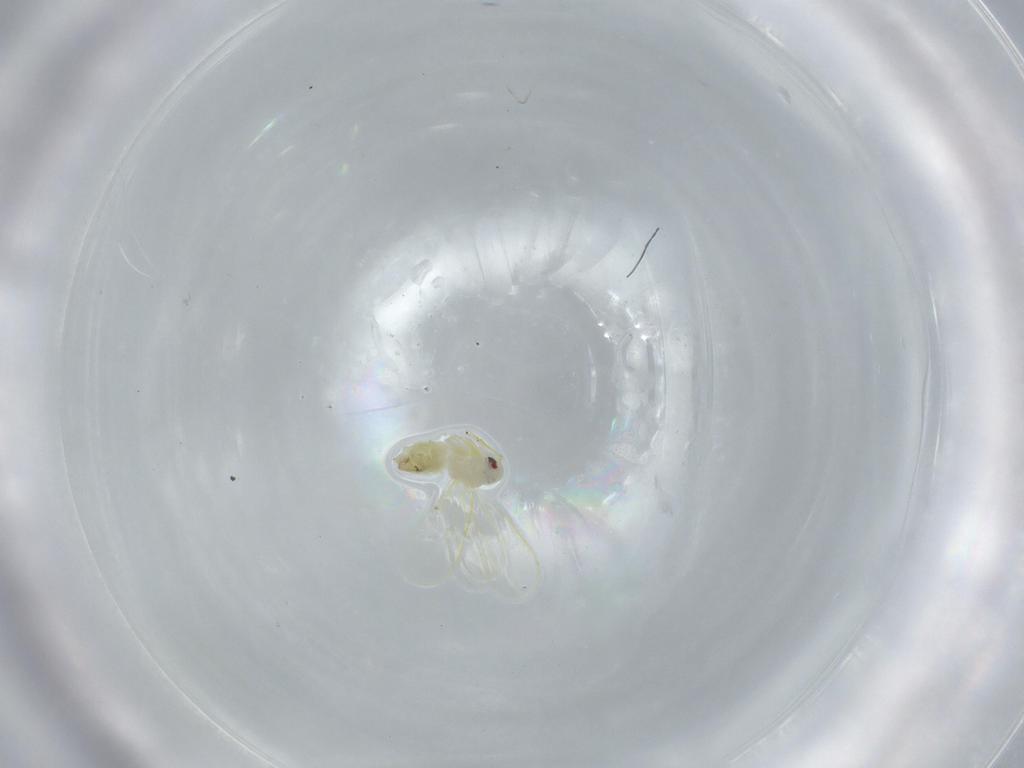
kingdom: Animalia
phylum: Arthropoda
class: Insecta
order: Hemiptera
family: Aleyrodidae
